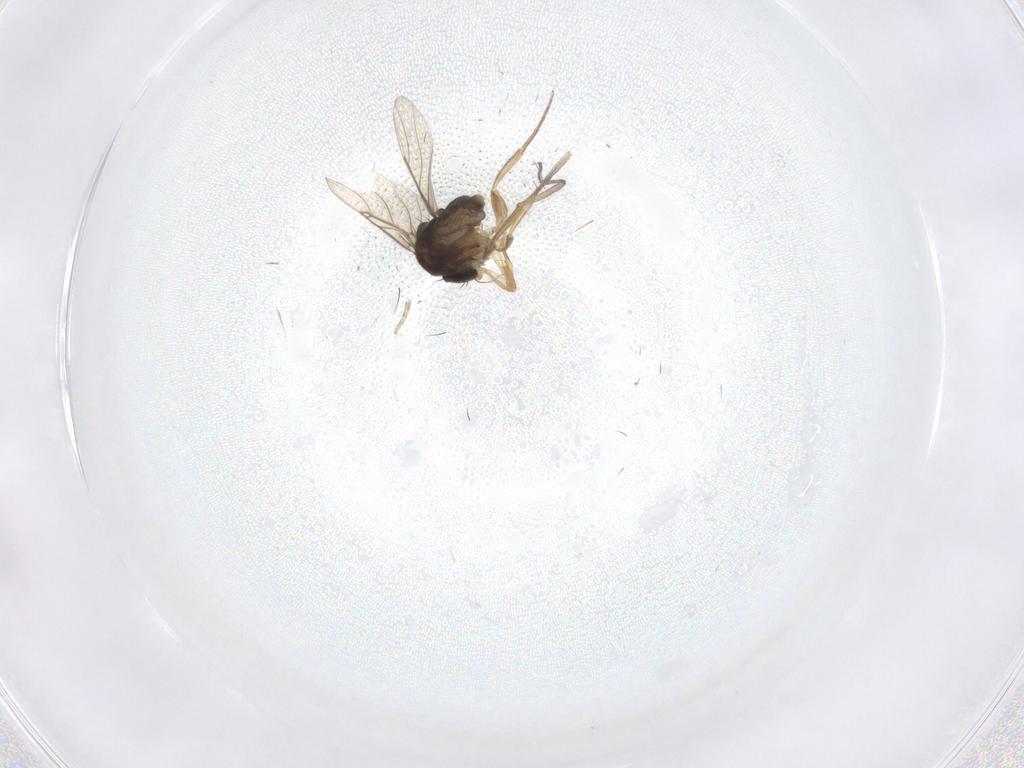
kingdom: Animalia
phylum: Arthropoda
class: Insecta
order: Diptera
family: Sciaridae
